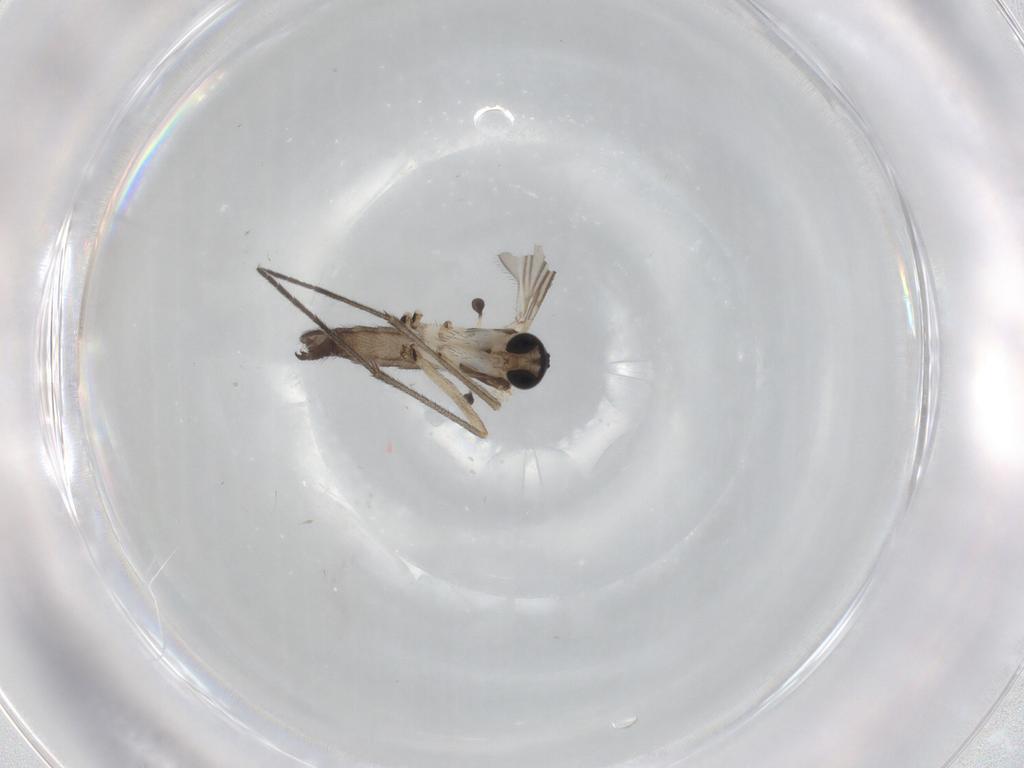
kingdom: Animalia
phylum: Arthropoda
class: Insecta
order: Diptera
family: Sciaridae
